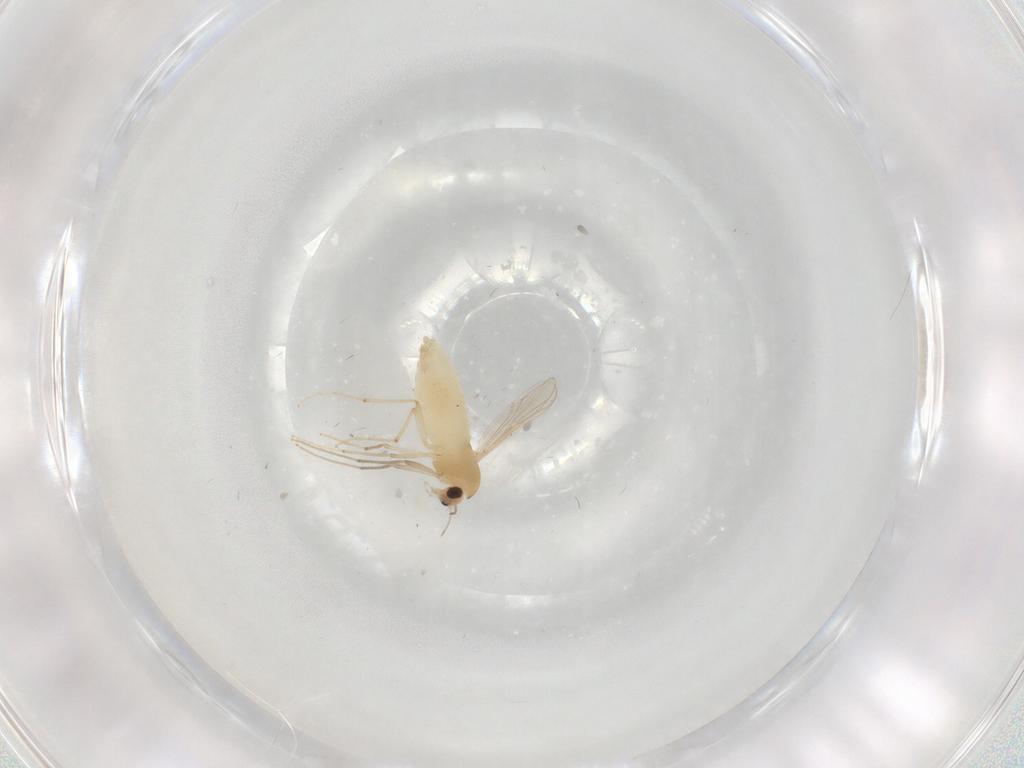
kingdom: Animalia
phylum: Arthropoda
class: Insecta
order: Diptera
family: Chironomidae
